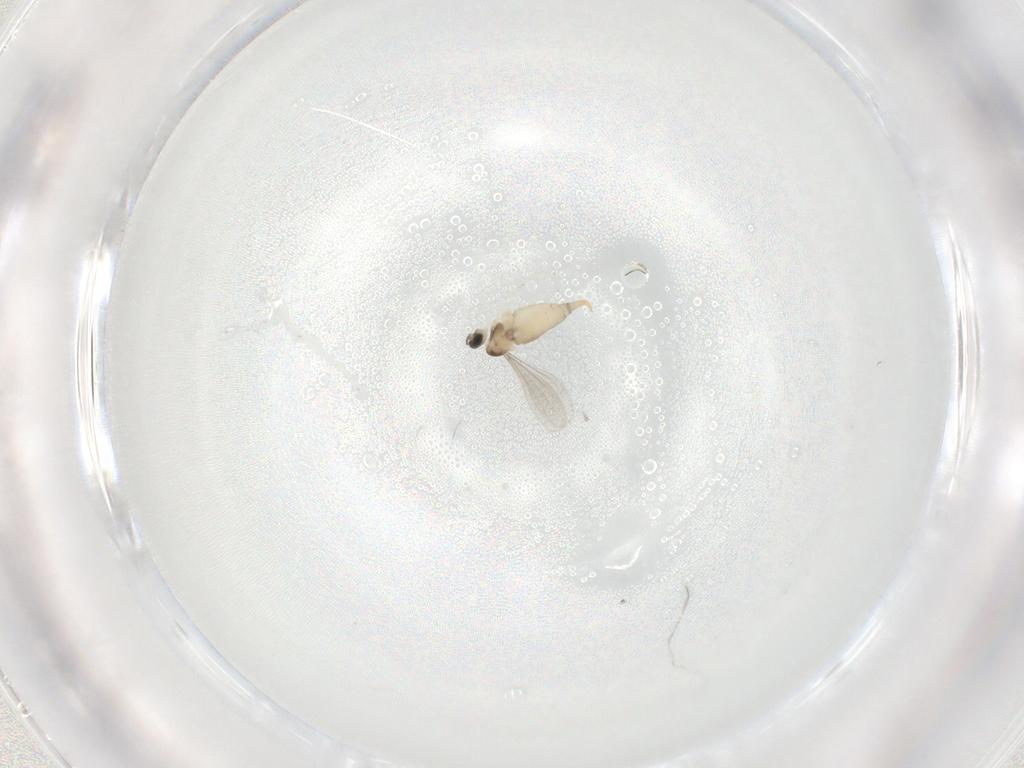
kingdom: Animalia
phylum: Arthropoda
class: Insecta
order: Diptera
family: Phoridae
